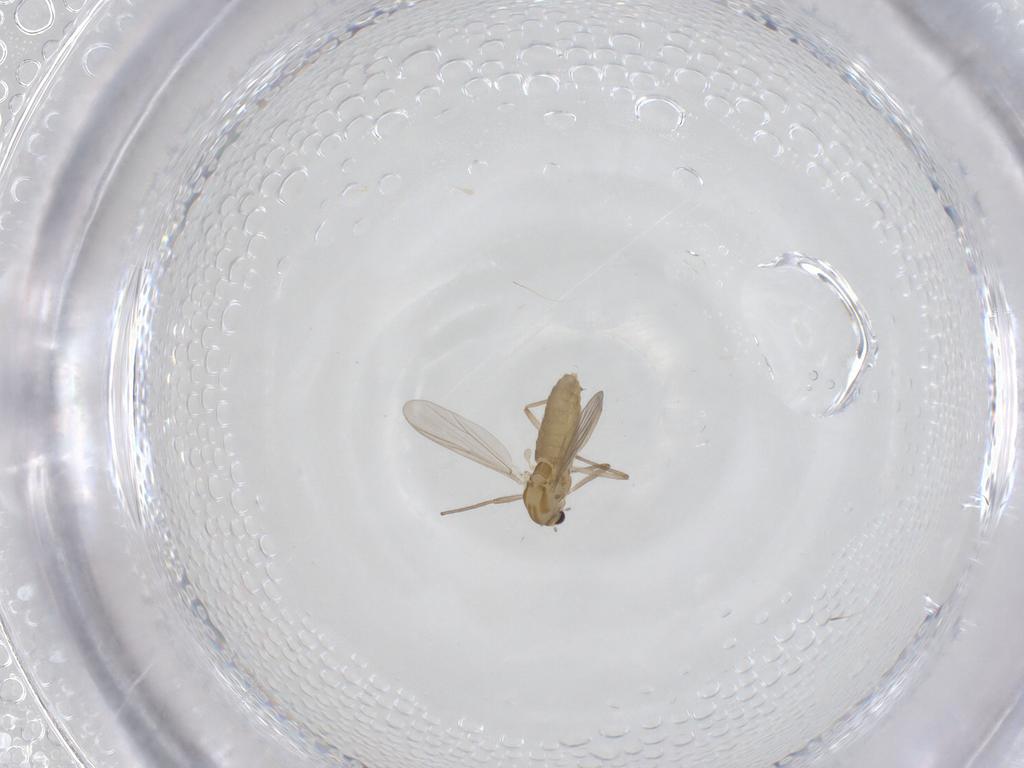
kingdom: Animalia
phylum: Arthropoda
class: Insecta
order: Diptera
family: Chironomidae
